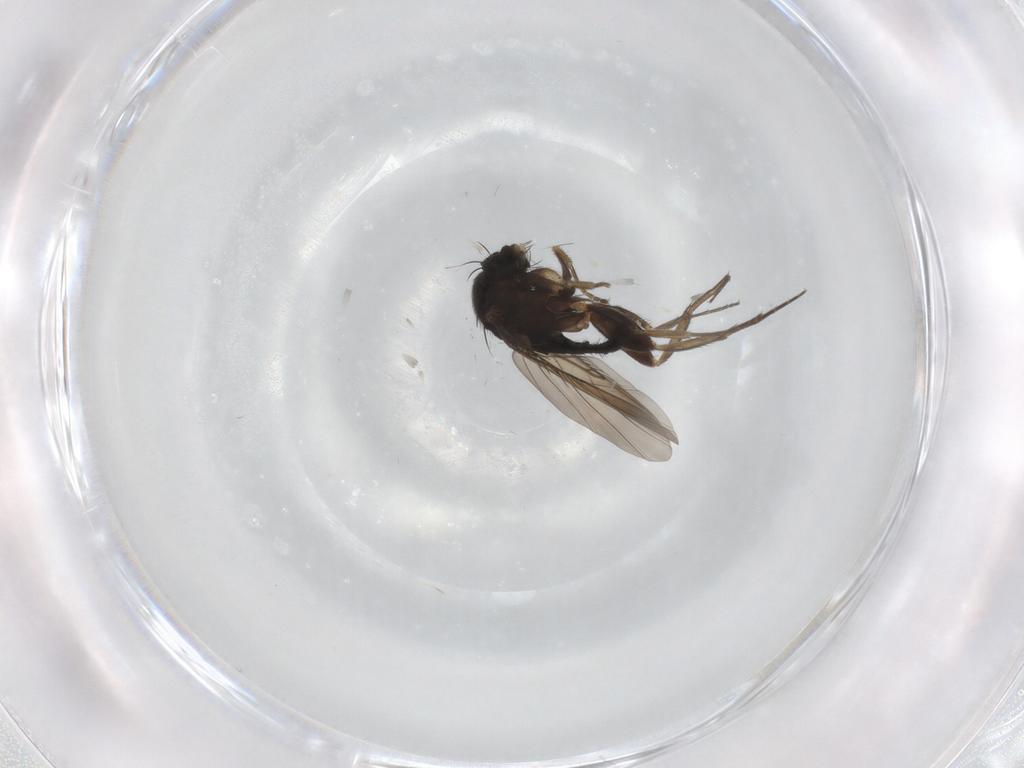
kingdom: Animalia
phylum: Arthropoda
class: Insecta
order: Diptera
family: Phoridae
